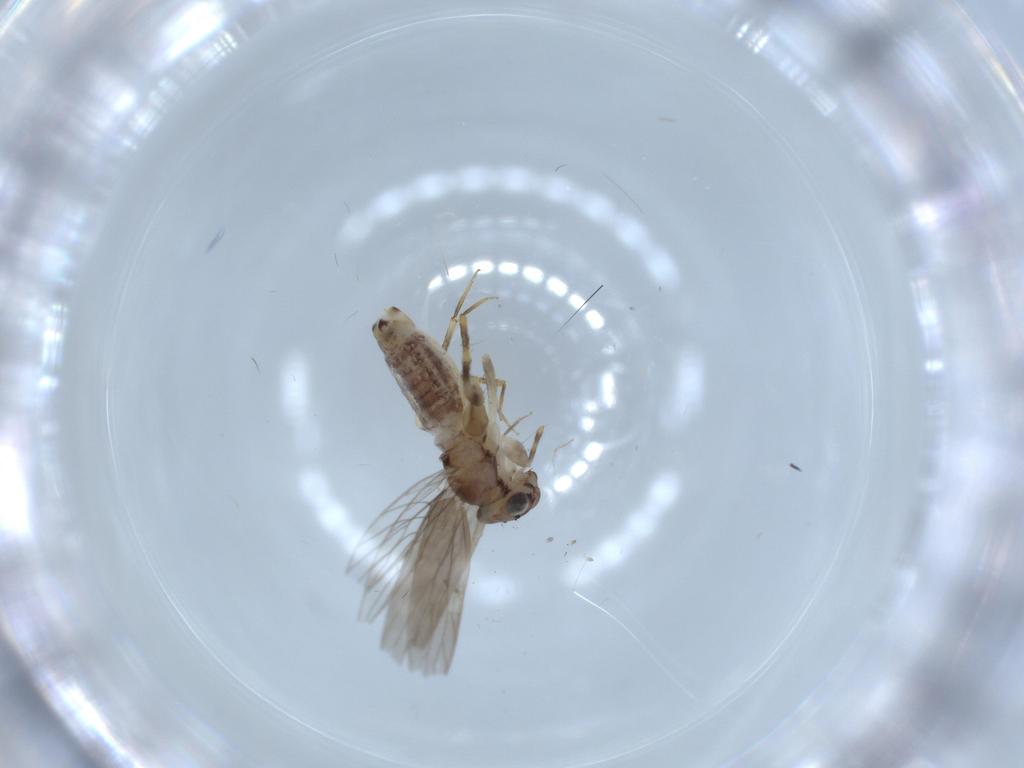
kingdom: Animalia
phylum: Arthropoda
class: Insecta
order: Psocodea
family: Lepidopsocidae
